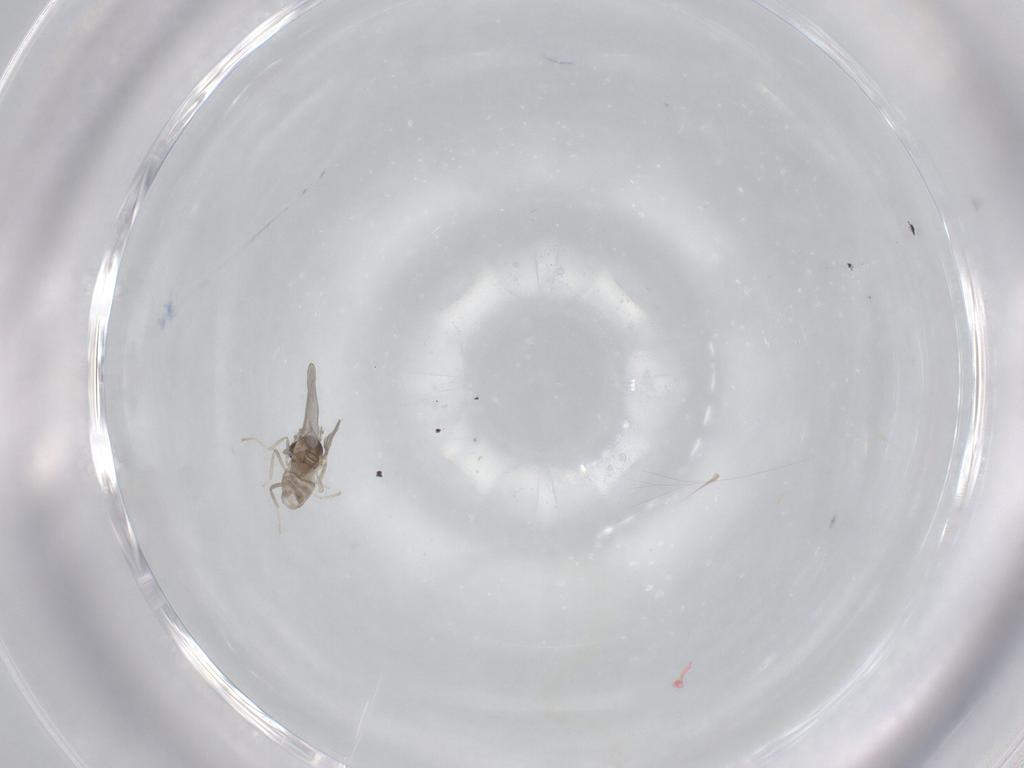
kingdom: Animalia
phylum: Arthropoda
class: Insecta
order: Diptera
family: Cecidomyiidae
